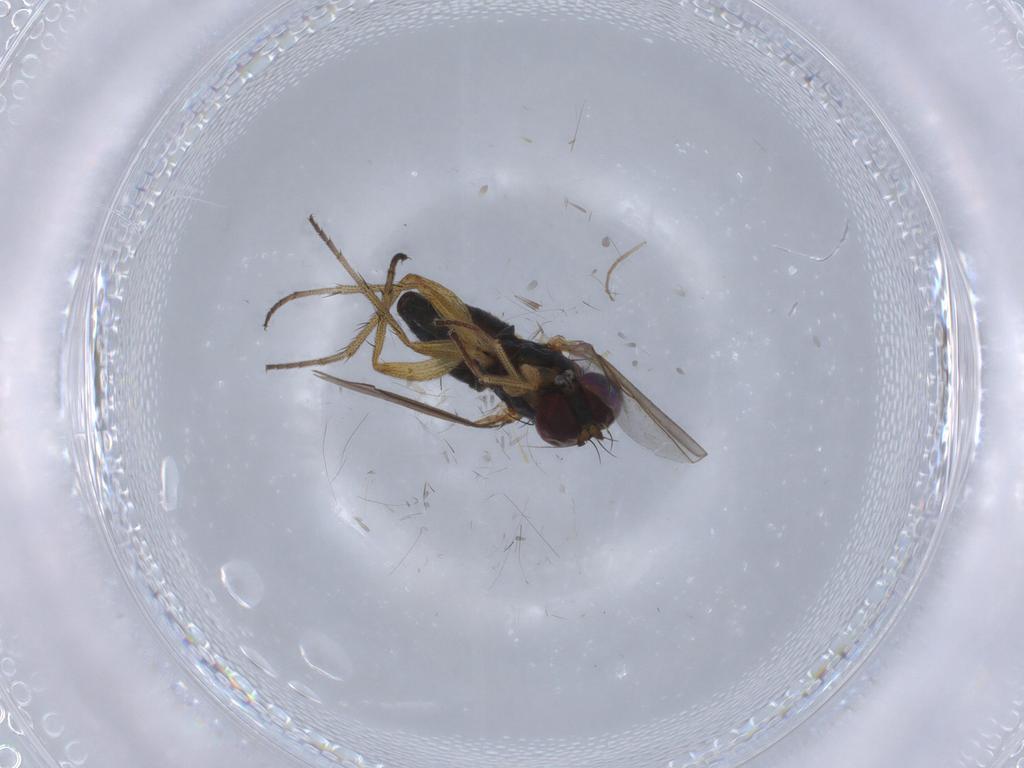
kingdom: Animalia
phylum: Arthropoda
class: Insecta
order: Diptera
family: Chironomidae
